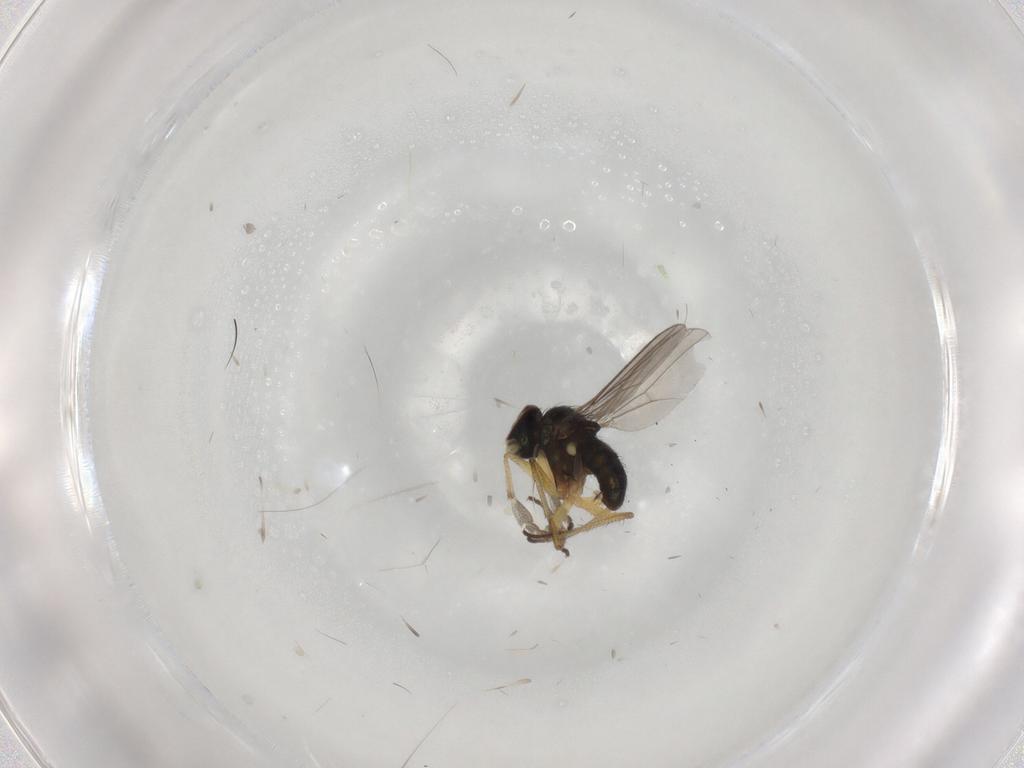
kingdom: Animalia
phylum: Arthropoda
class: Insecta
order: Diptera
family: Dolichopodidae
